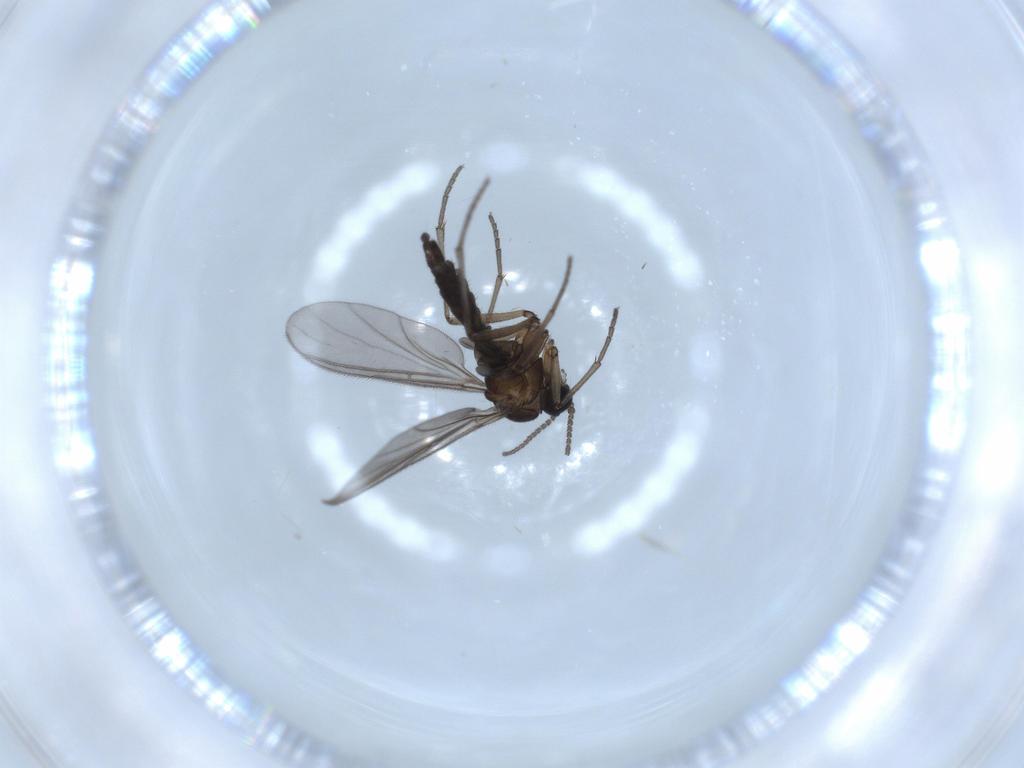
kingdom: Animalia
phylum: Arthropoda
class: Insecta
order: Diptera
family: Sciaridae
